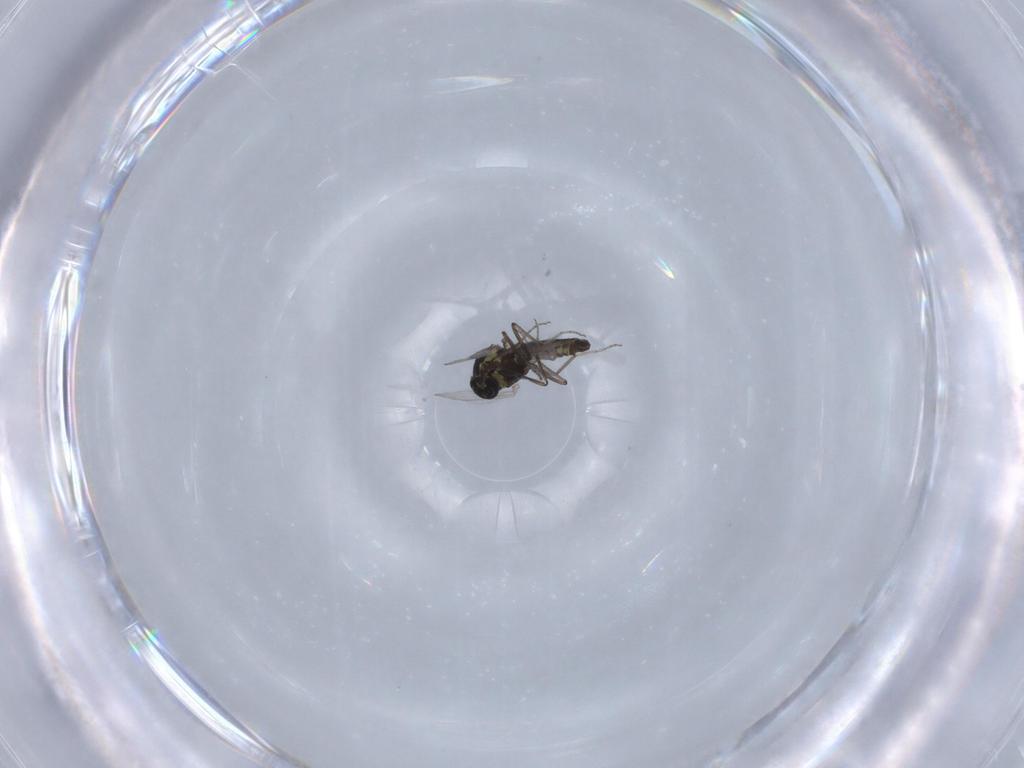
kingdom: Animalia
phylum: Arthropoda
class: Insecta
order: Diptera
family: Ceratopogonidae
